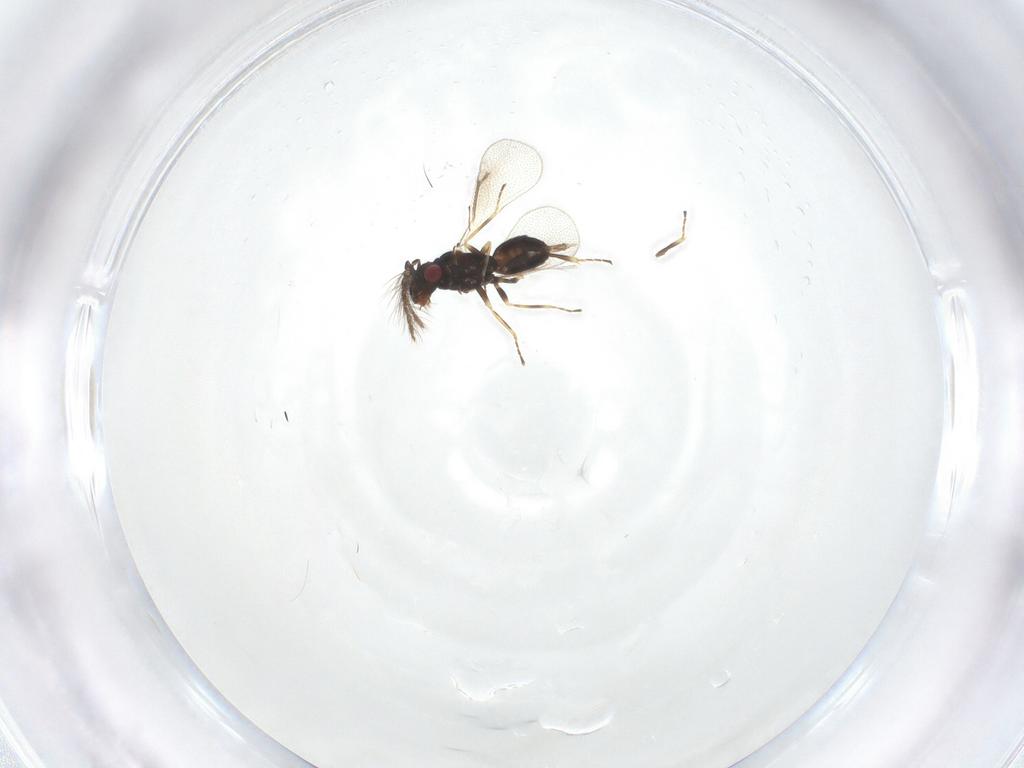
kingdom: Animalia
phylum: Arthropoda
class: Insecta
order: Hymenoptera
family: Eulophidae
